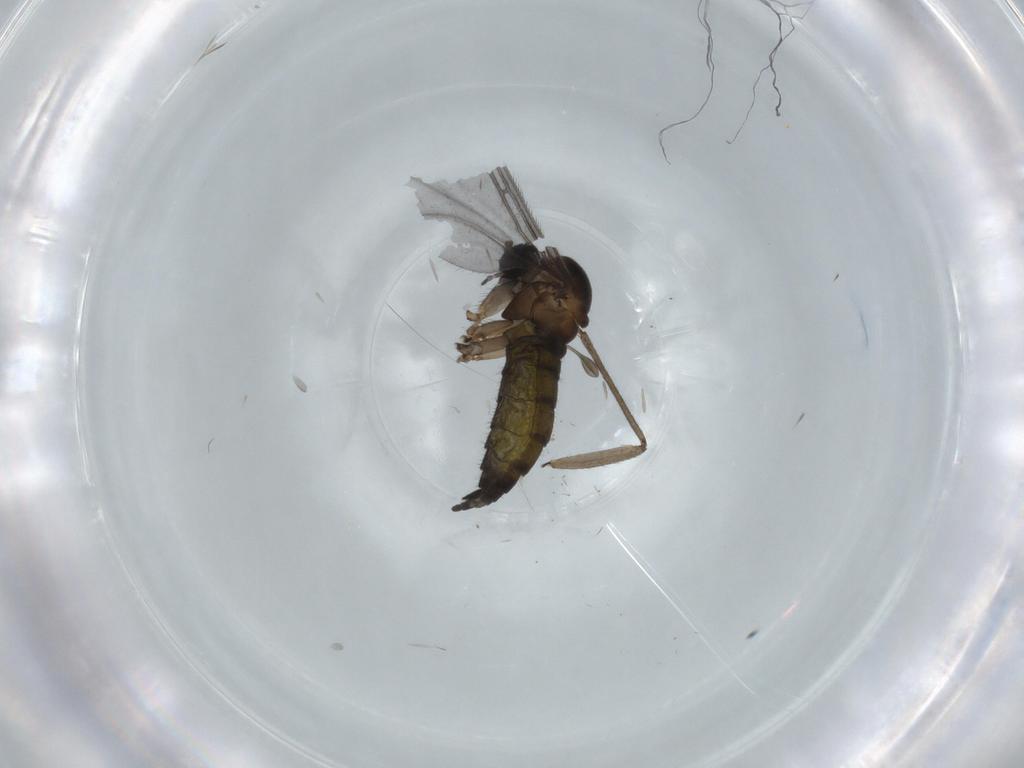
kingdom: Animalia
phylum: Arthropoda
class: Insecta
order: Diptera
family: Sciaridae
